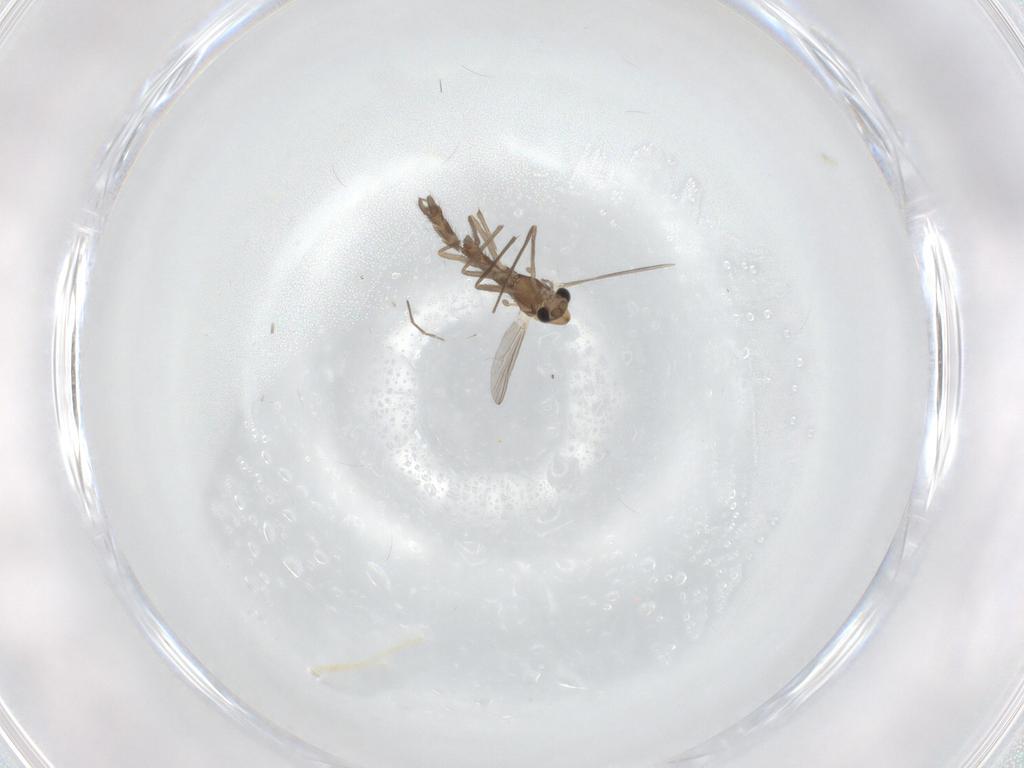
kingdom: Animalia
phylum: Arthropoda
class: Insecta
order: Diptera
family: Chironomidae
